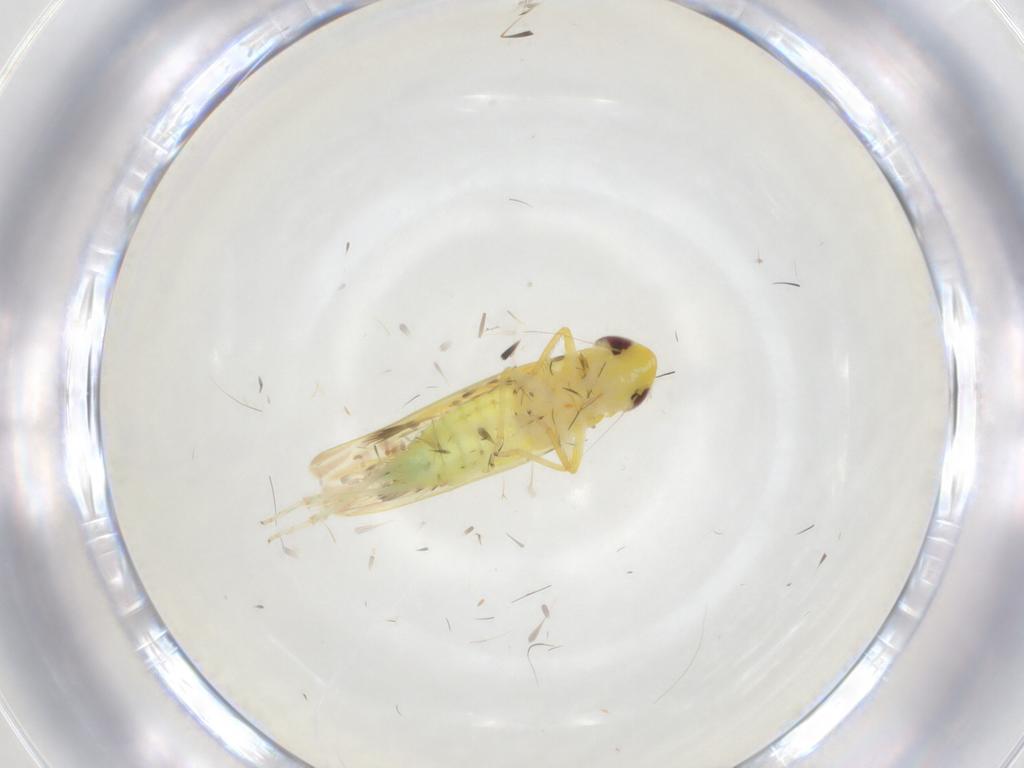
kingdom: Animalia
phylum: Arthropoda
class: Insecta
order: Hemiptera
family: Cicadellidae
